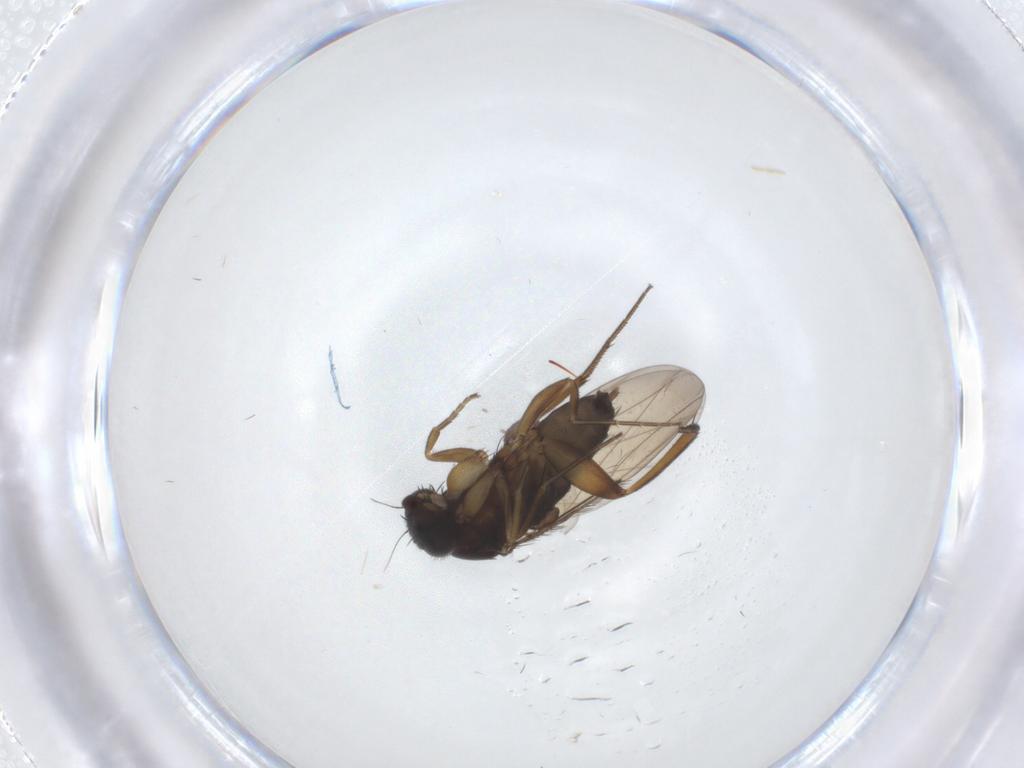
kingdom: Animalia
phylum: Arthropoda
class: Insecta
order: Diptera
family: Phoridae
